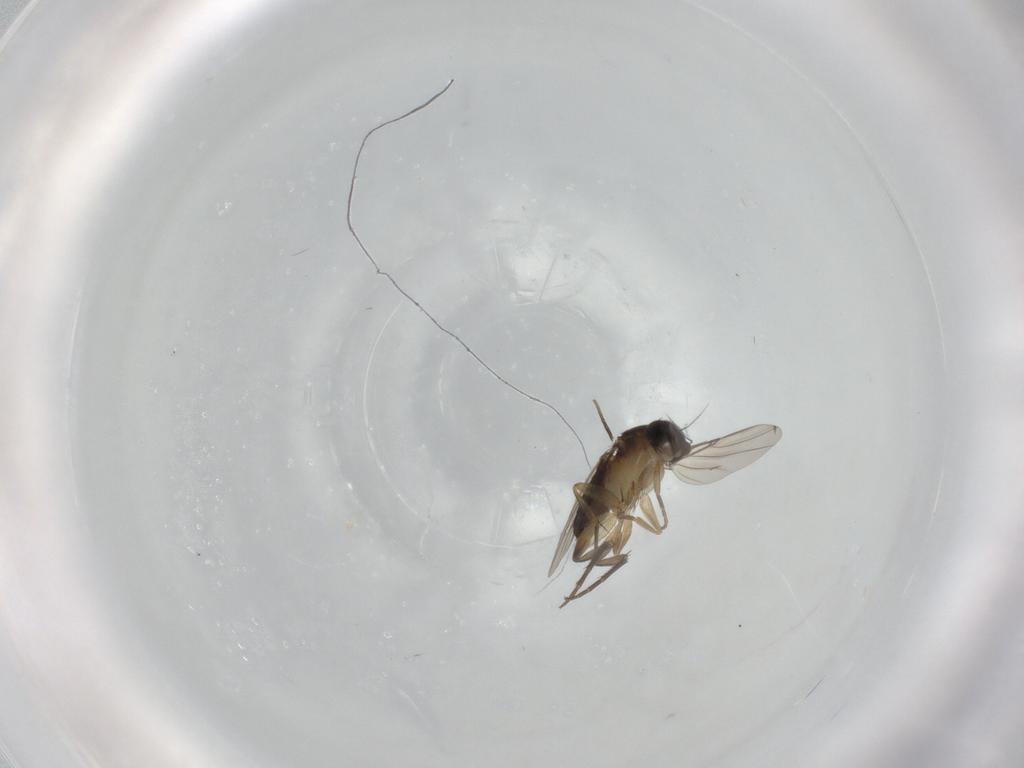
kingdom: Animalia
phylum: Arthropoda
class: Insecta
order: Diptera
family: Phoridae
